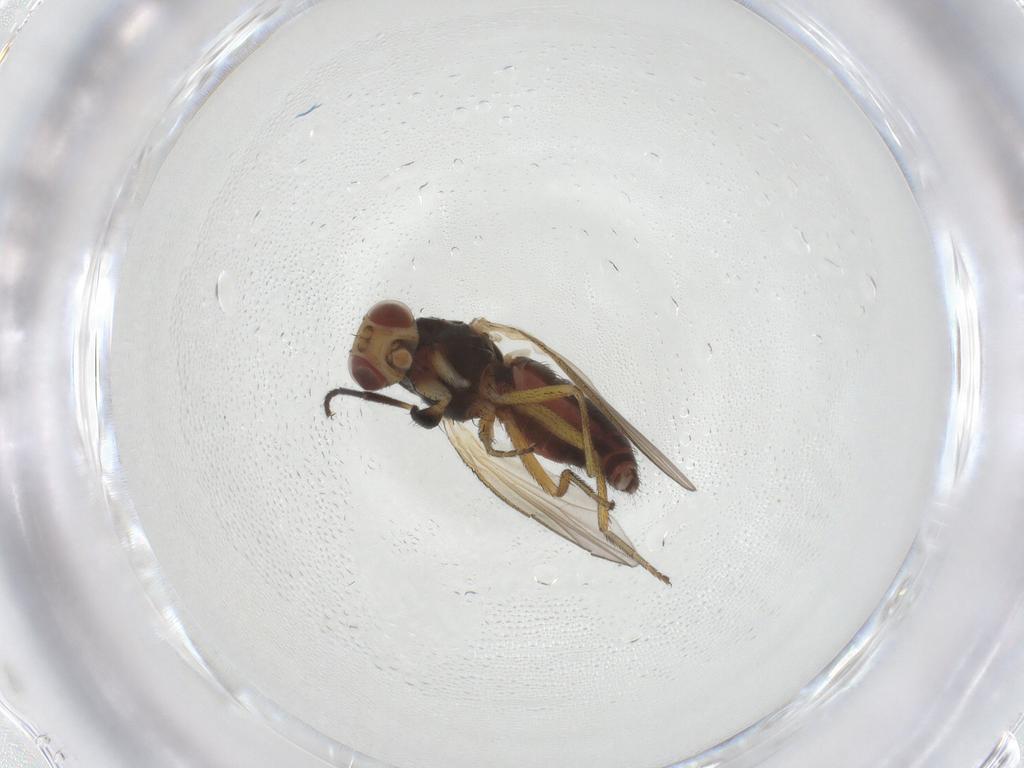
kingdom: Animalia
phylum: Arthropoda
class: Insecta
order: Diptera
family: Heleomyzidae
